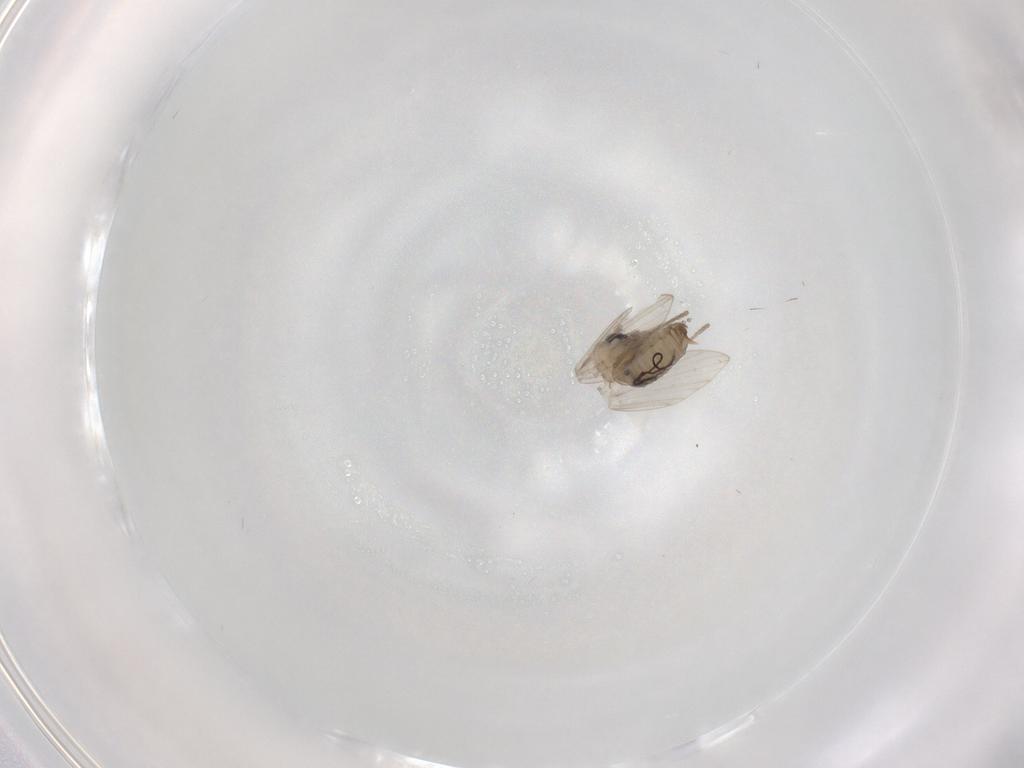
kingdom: Animalia
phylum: Arthropoda
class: Insecta
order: Diptera
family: Psychodidae
